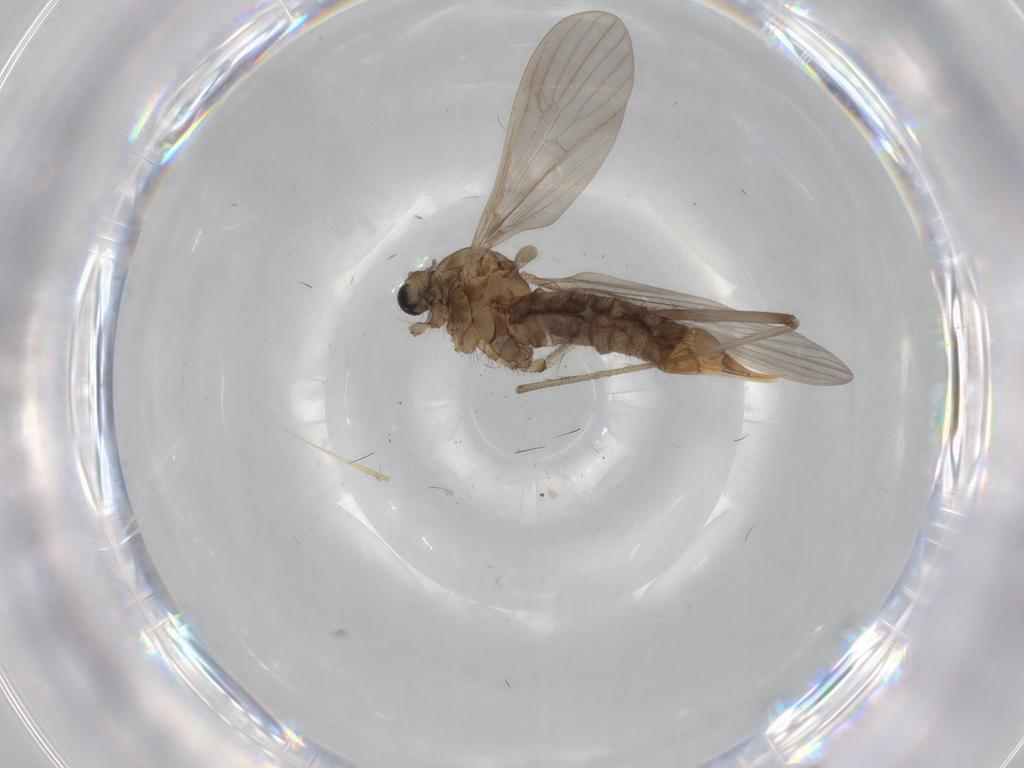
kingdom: Animalia
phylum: Arthropoda
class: Insecta
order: Diptera
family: Limoniidae
